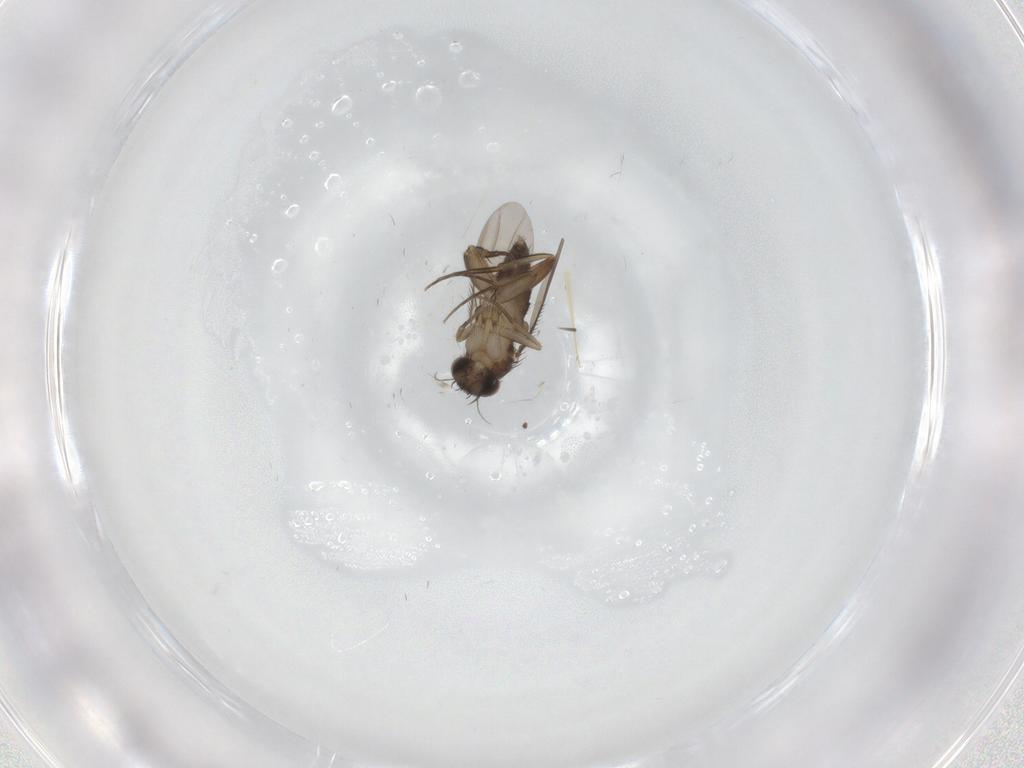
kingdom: Animalia
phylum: Arthropoda
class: Insecta
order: Diptera
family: Phoridae
